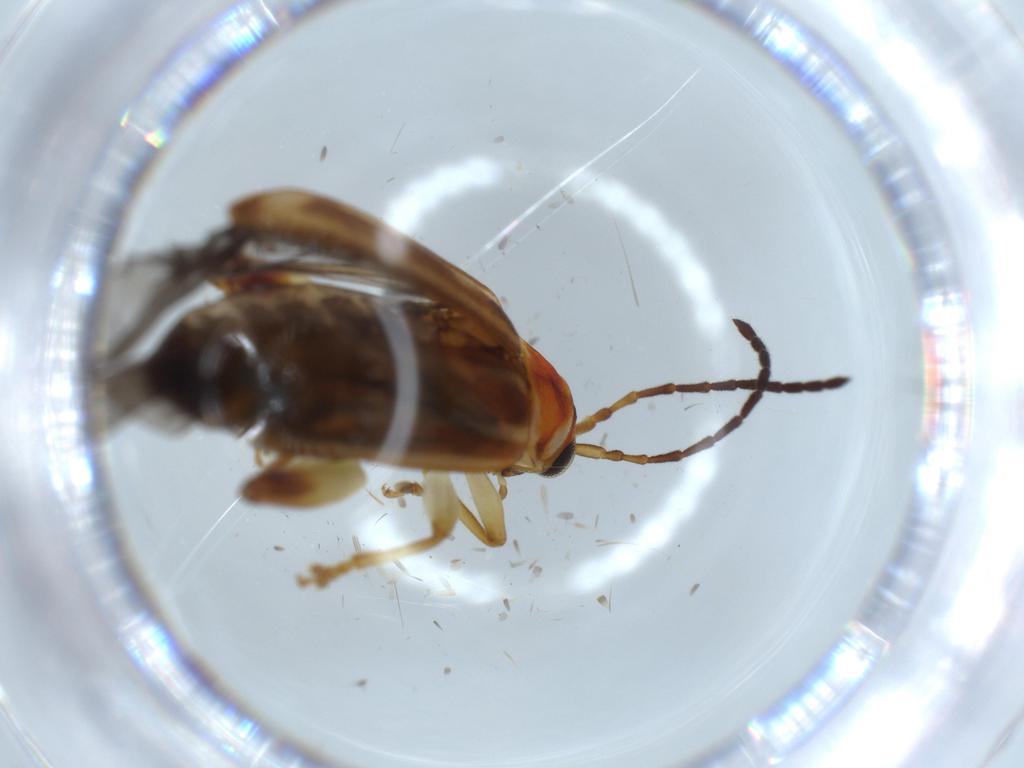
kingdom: Animalia
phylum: Arthropoda
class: Insecta
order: Coleoptera
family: Chrysomelidae
